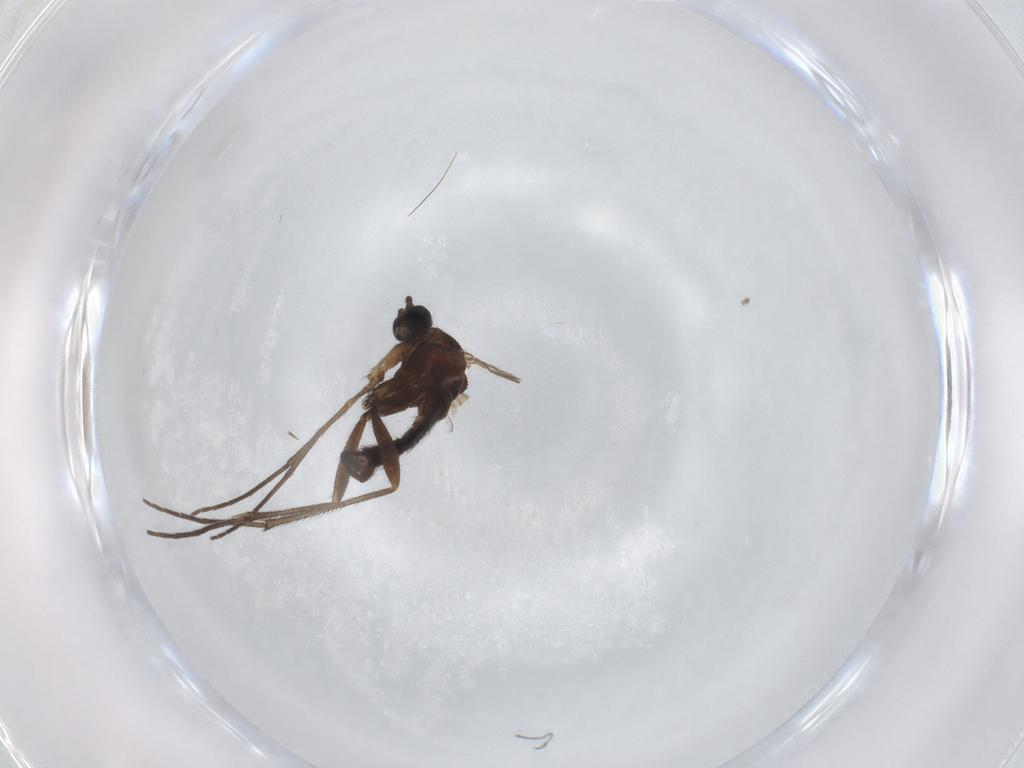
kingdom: Animalia
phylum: Arthropoda
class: Insecta
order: Diptera
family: Sciaridae
